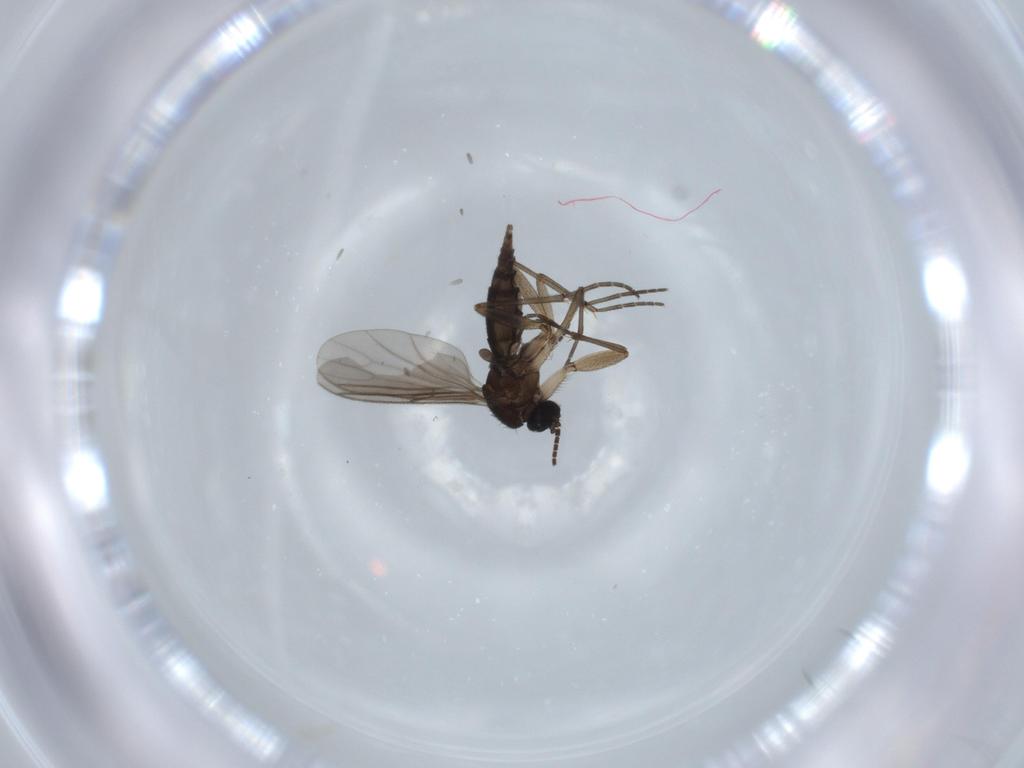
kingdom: Animalia
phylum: Arthropoda
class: Insecta
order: Diptera
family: Sciaridae
